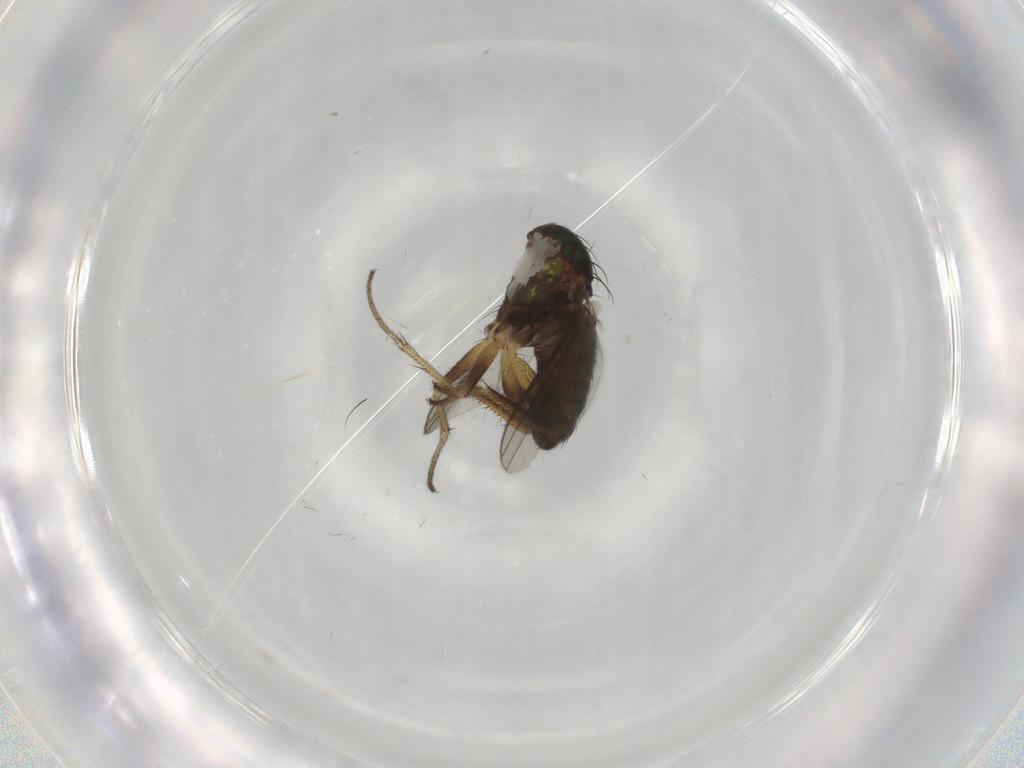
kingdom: Animalia
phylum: Arthropoda
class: Insecta
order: Diptera
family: Dolichopodidae
